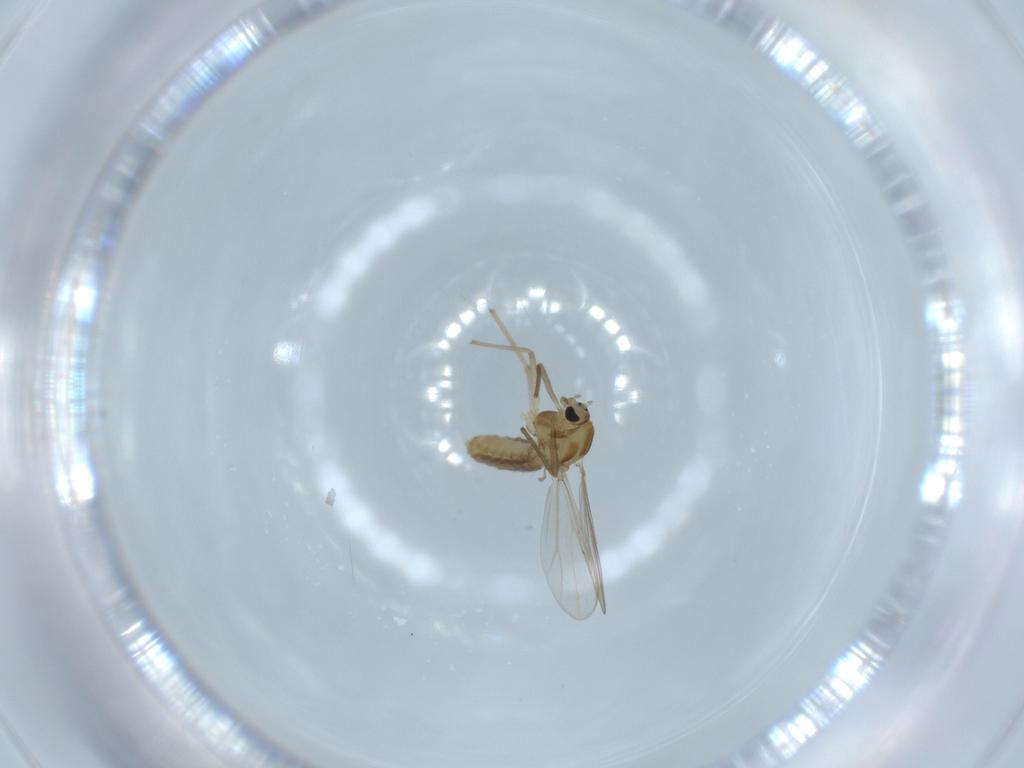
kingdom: Animalia
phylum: Arthropoda
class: Insecta
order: Diptera
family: Chironomidae
